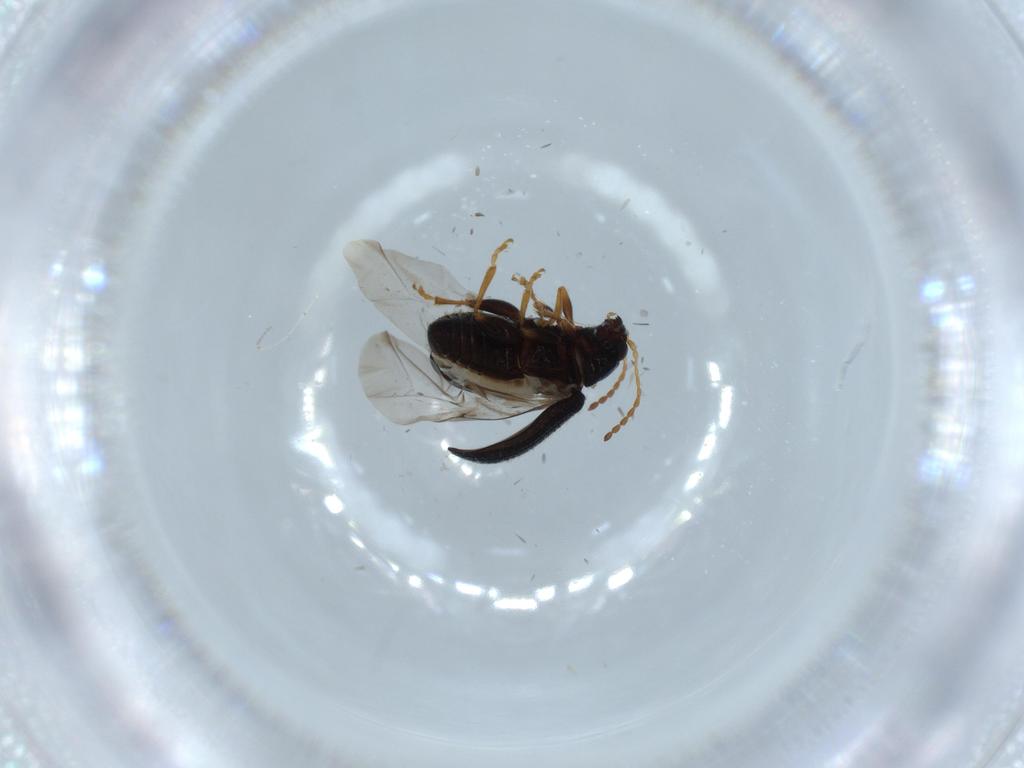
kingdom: Animalia
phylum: Arthropoda
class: Insecta
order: Coleoptera
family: Chrysomelidae
